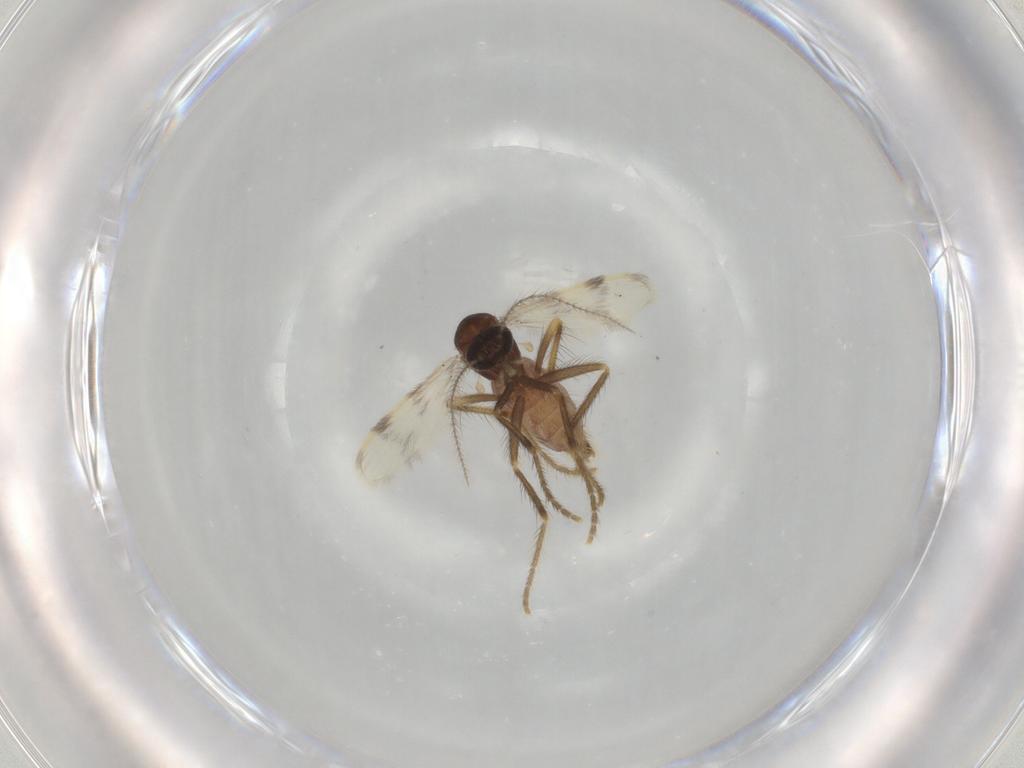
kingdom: Animalia
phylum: Arthropoda
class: Insecta
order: Diptera
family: Corethrellidae
